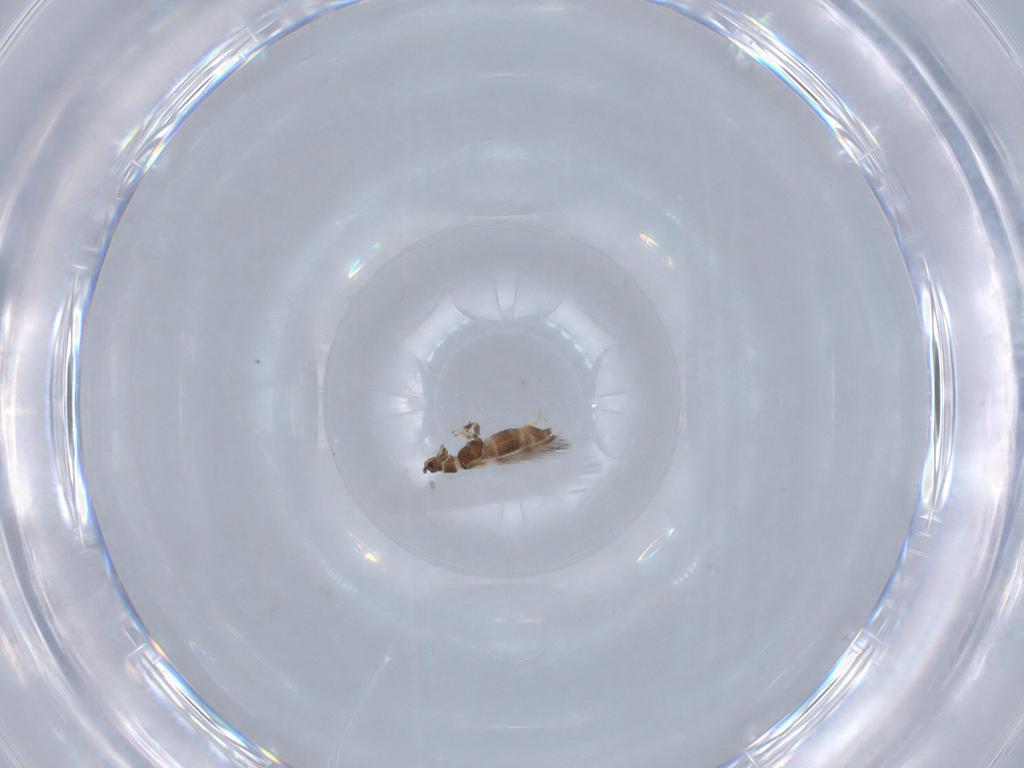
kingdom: Animalia
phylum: Arthropoda
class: Insecta
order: Thysanoptera
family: Thripidae
